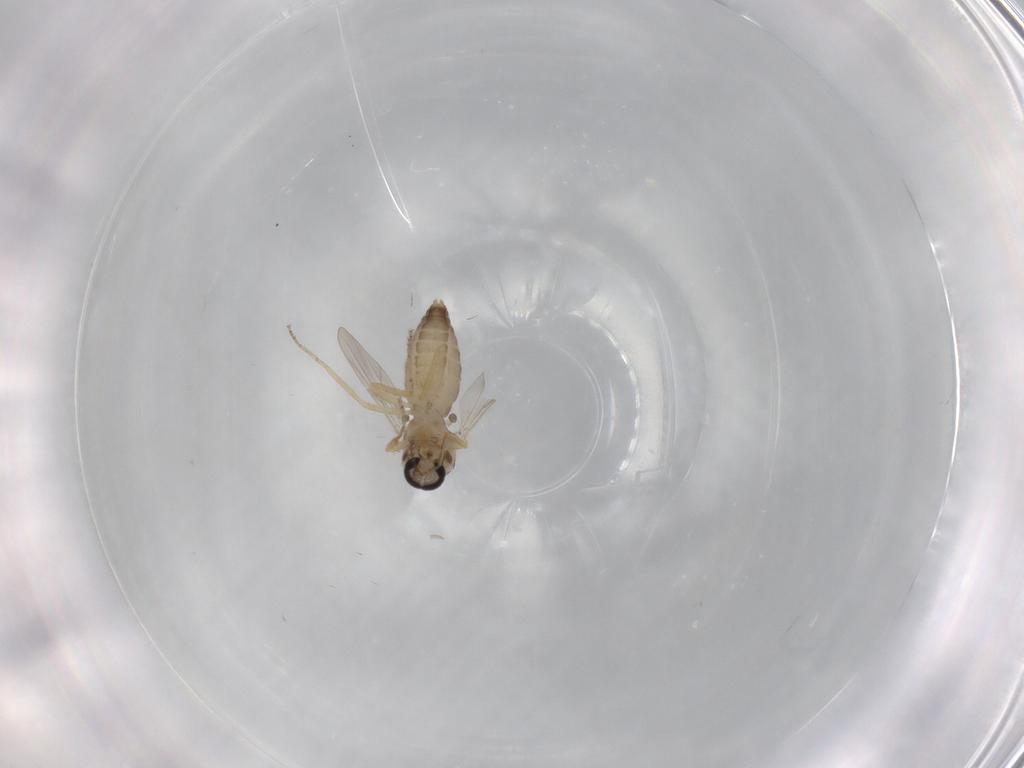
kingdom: Animalia
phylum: Arthropoda
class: Insecta
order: Diptera
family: Ceratopogonidae
